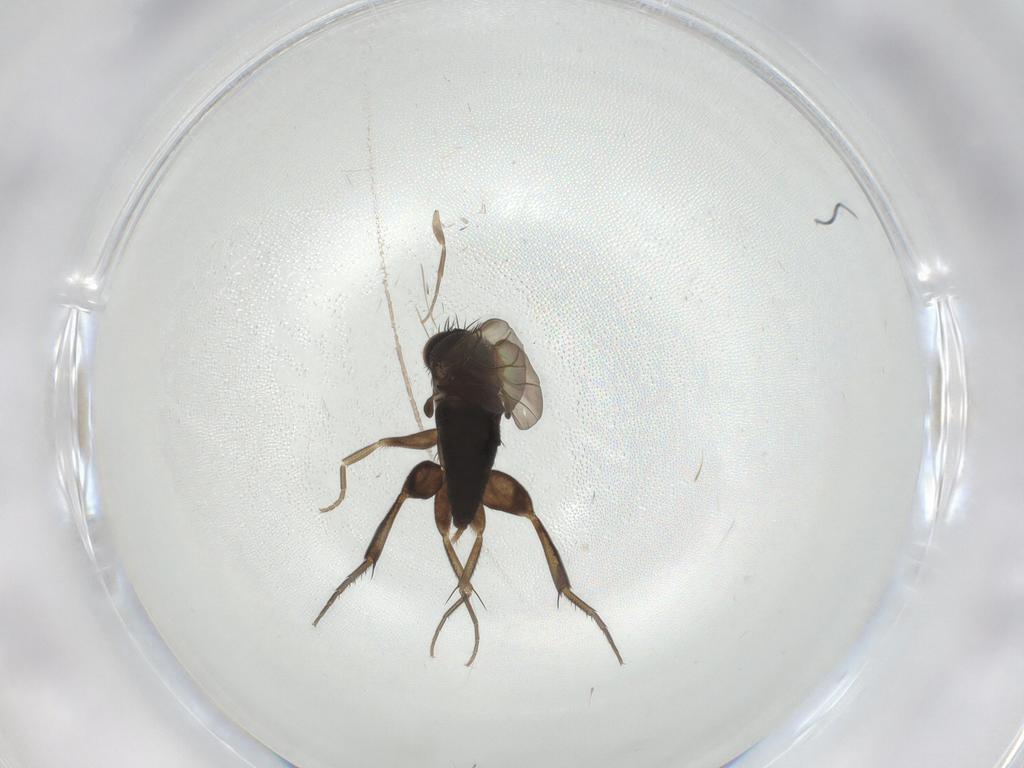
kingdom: Animalia
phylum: Arthropoda
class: Insecta
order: Diptera
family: Phoridae
